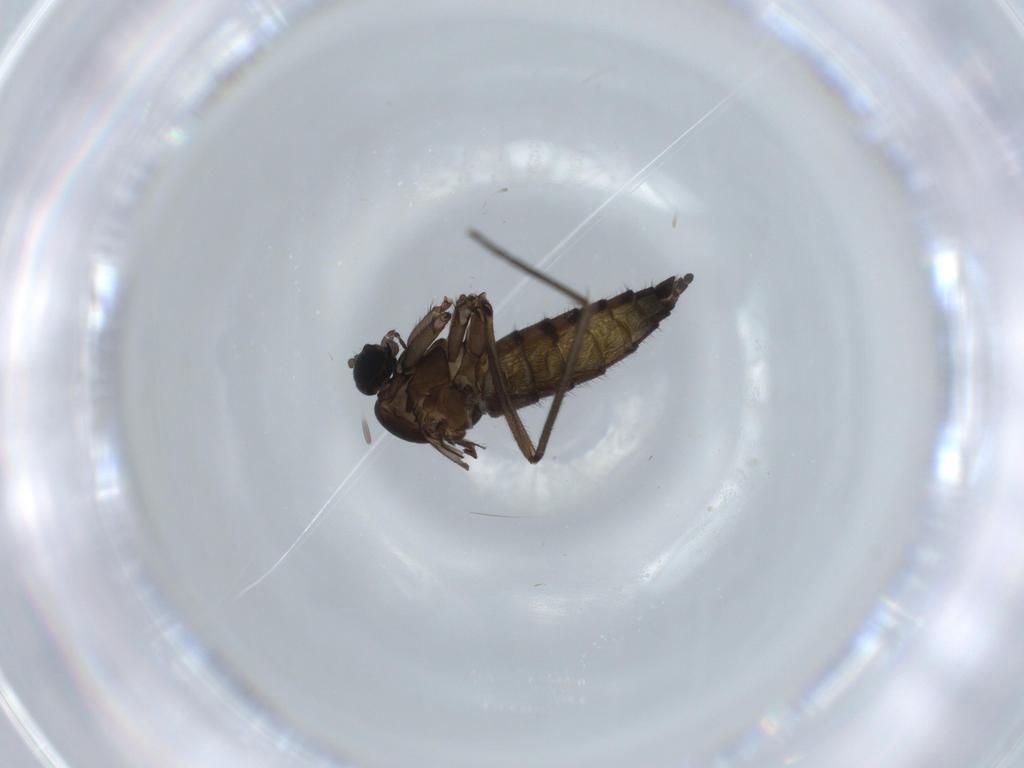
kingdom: Animalia
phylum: Arthropoda
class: Insecta
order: Diptera
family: Sciaridae
